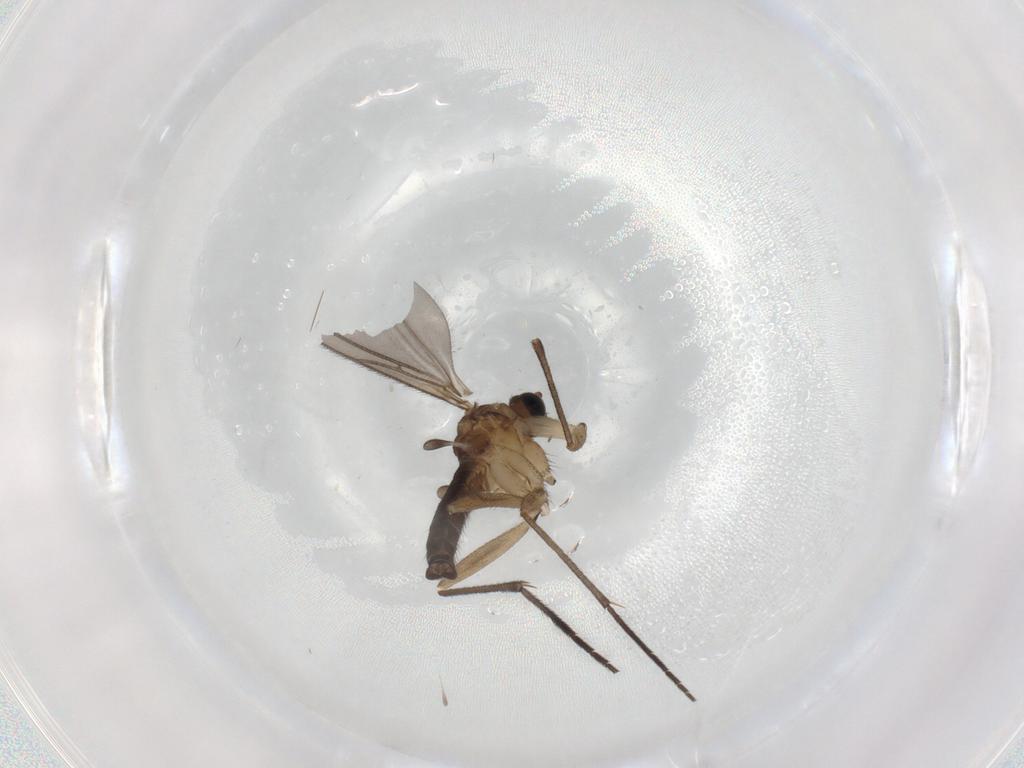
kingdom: Animalia
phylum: Arthropoda
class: Insecta
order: Diptera
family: Sciaridae
